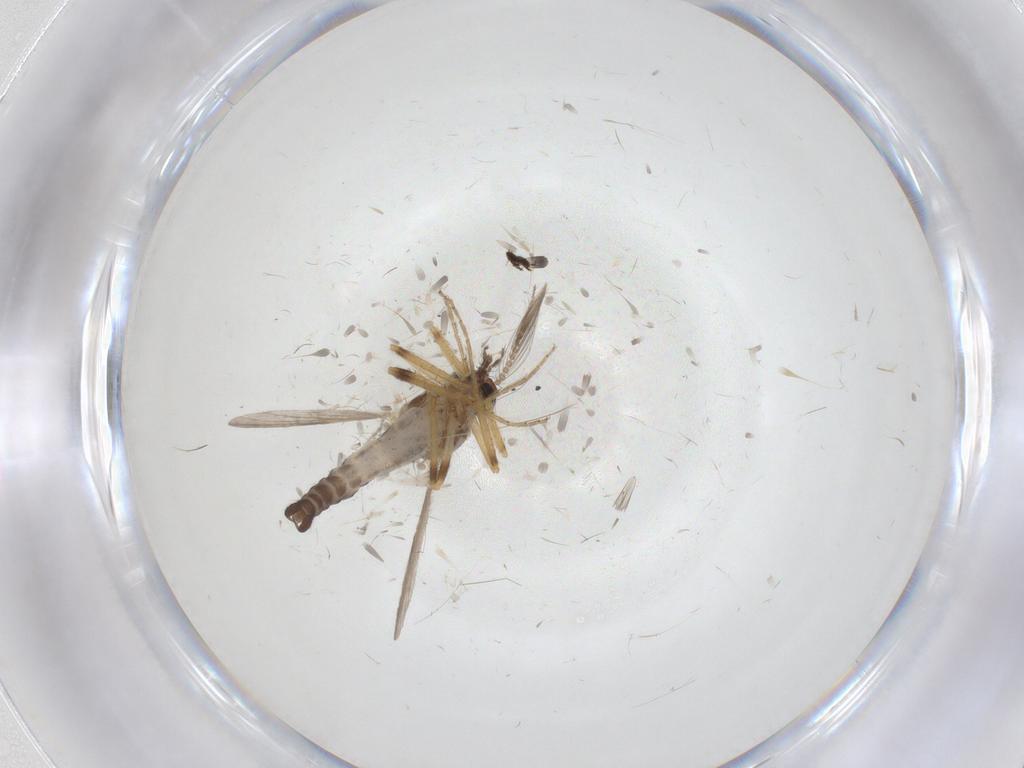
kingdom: Animalia
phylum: Arthropoda
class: Insecta
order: Diptera
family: Ceratopogonidae
